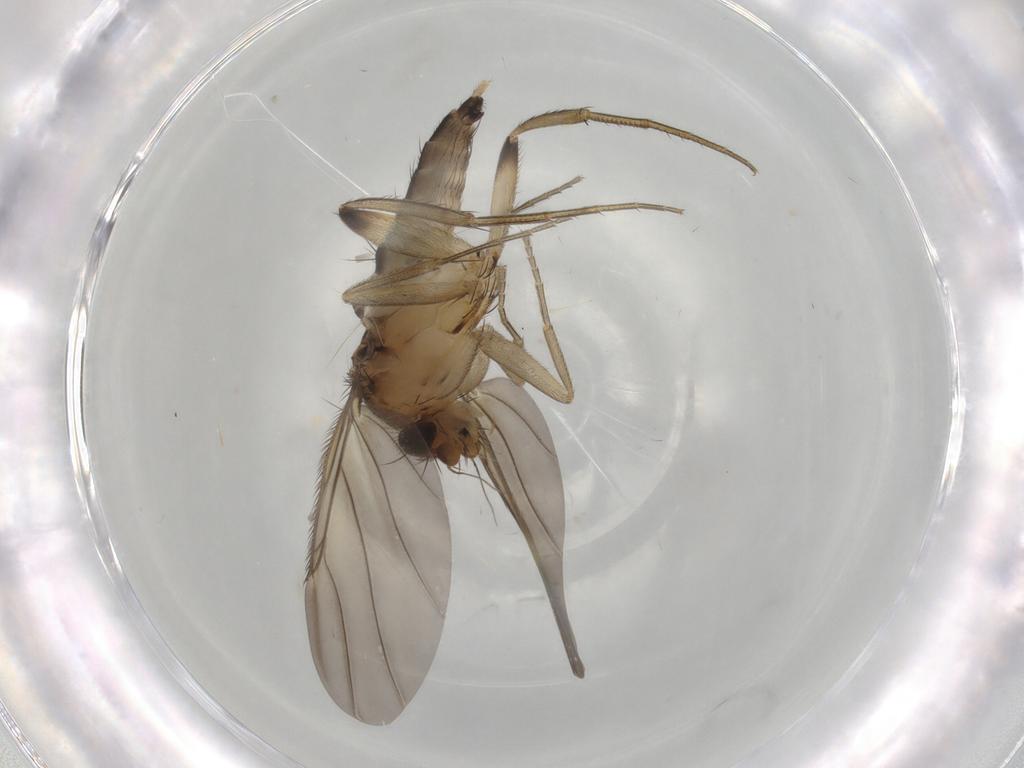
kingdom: Animalia
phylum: Arthropoda
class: Insecta
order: Diptera
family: Phoridae
